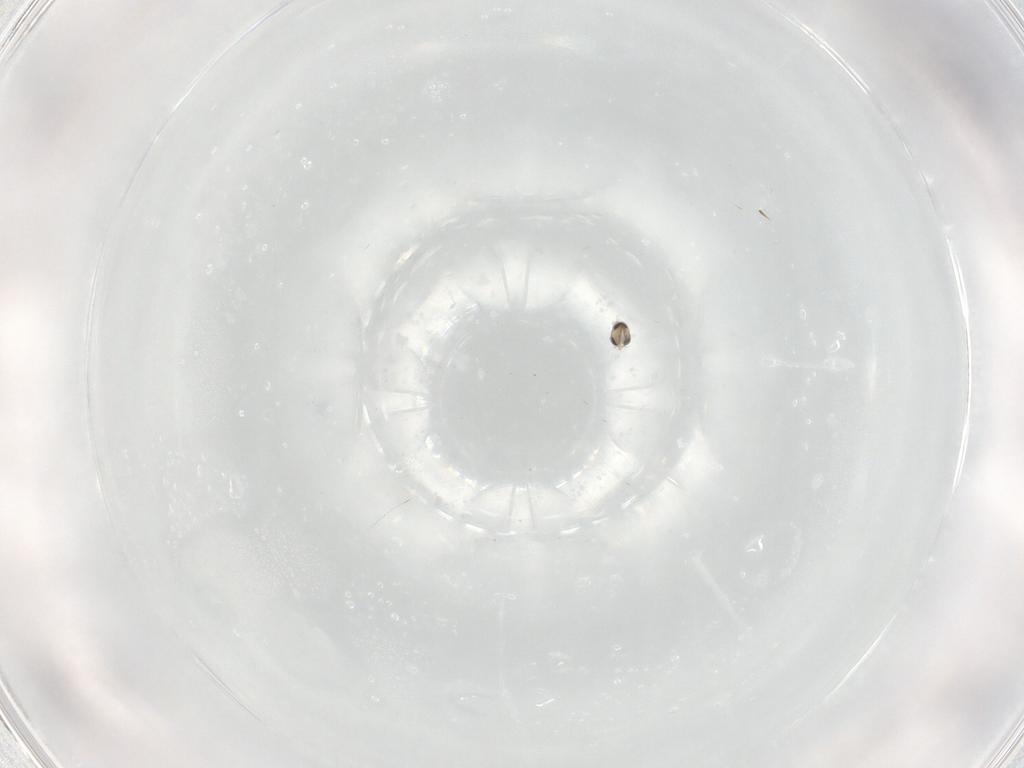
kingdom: Animalia
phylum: Arthropoda
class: Insecta
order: Diptera
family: Cecidomyiidae
